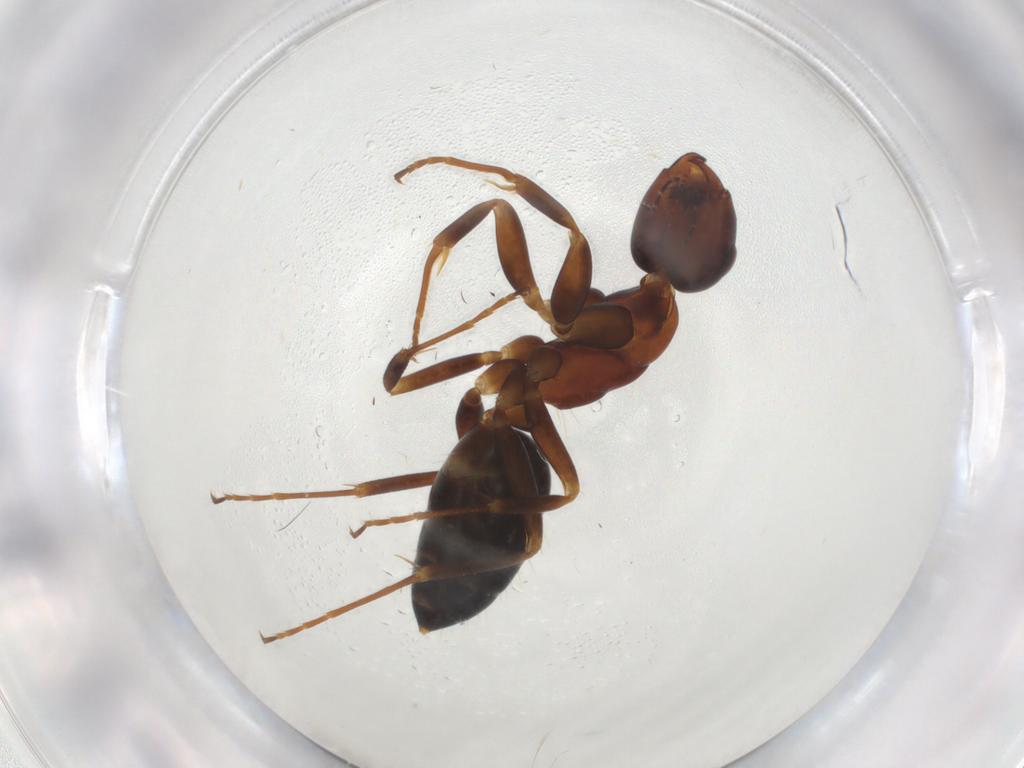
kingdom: Animalia
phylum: Arthropoda
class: Insecta
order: Hymenoptera
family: Formicidae
